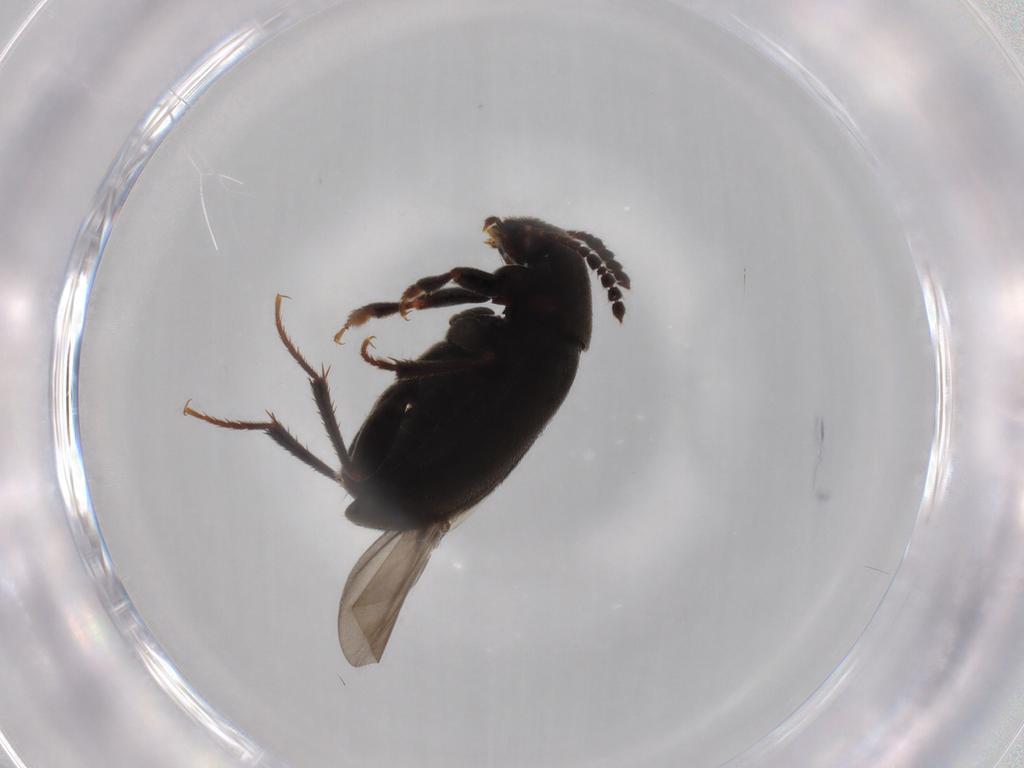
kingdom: Animalia
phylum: Arthropoda
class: Insecta
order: Coleoptera
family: Leiodidae
